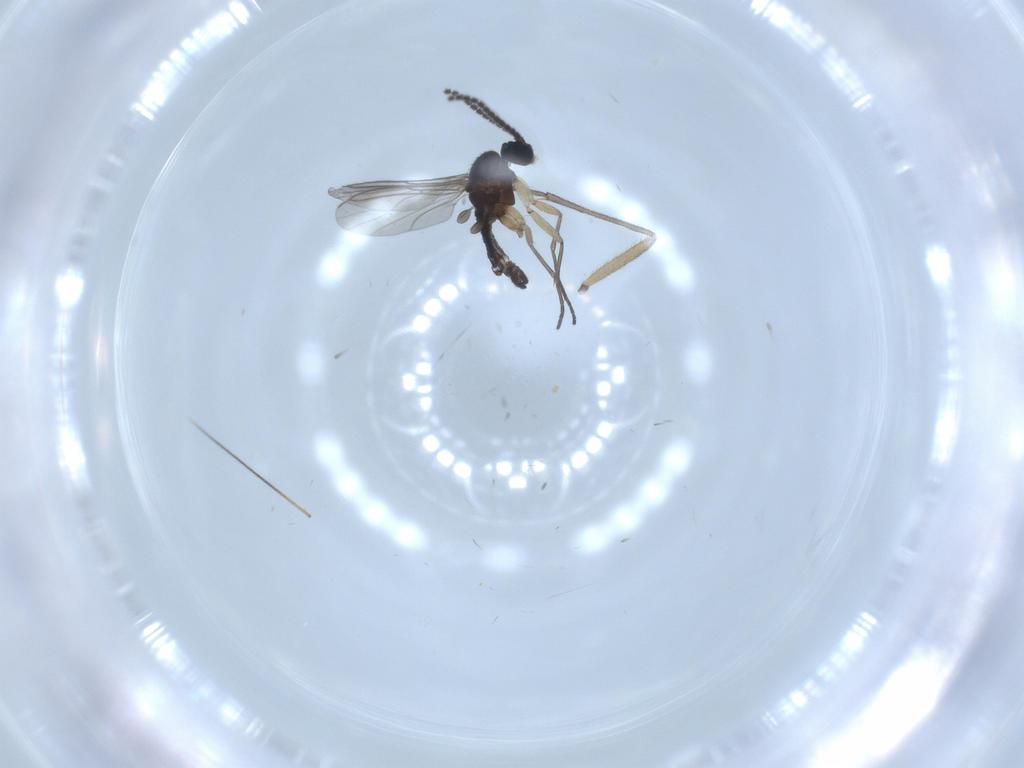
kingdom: Animalia
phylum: Arthropoda
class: Insecta
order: Diptera
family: Sciaridae
